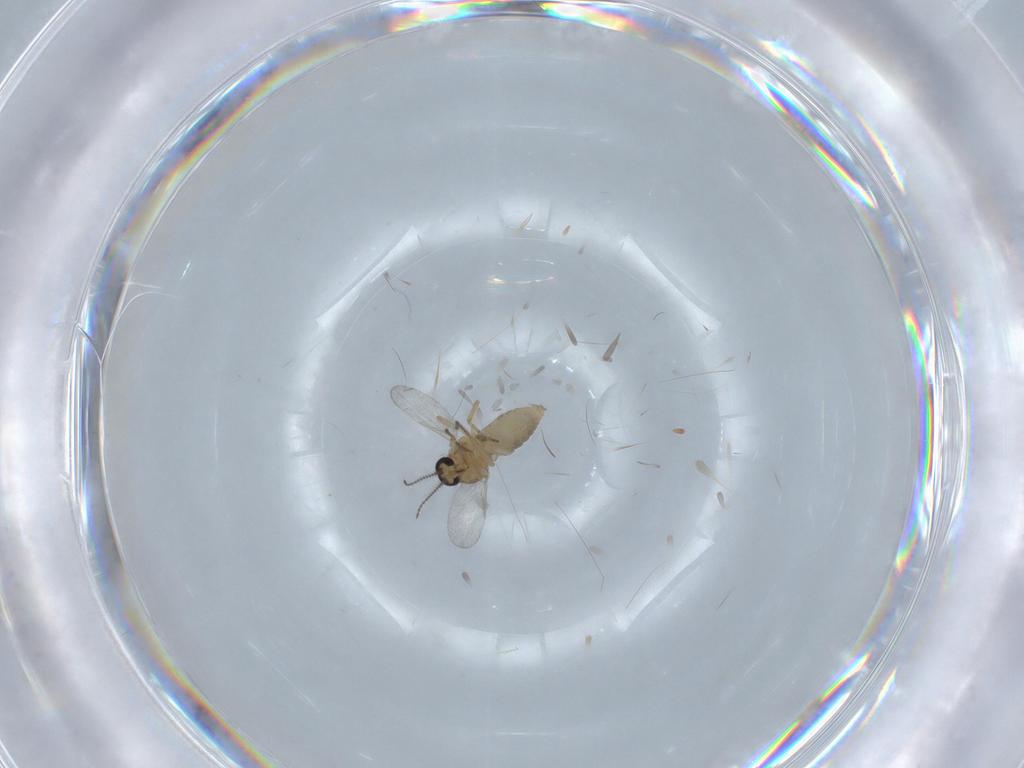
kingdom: Animalia
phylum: Arthropoda
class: Insecta
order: Diptera
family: Ceratopogonidae
